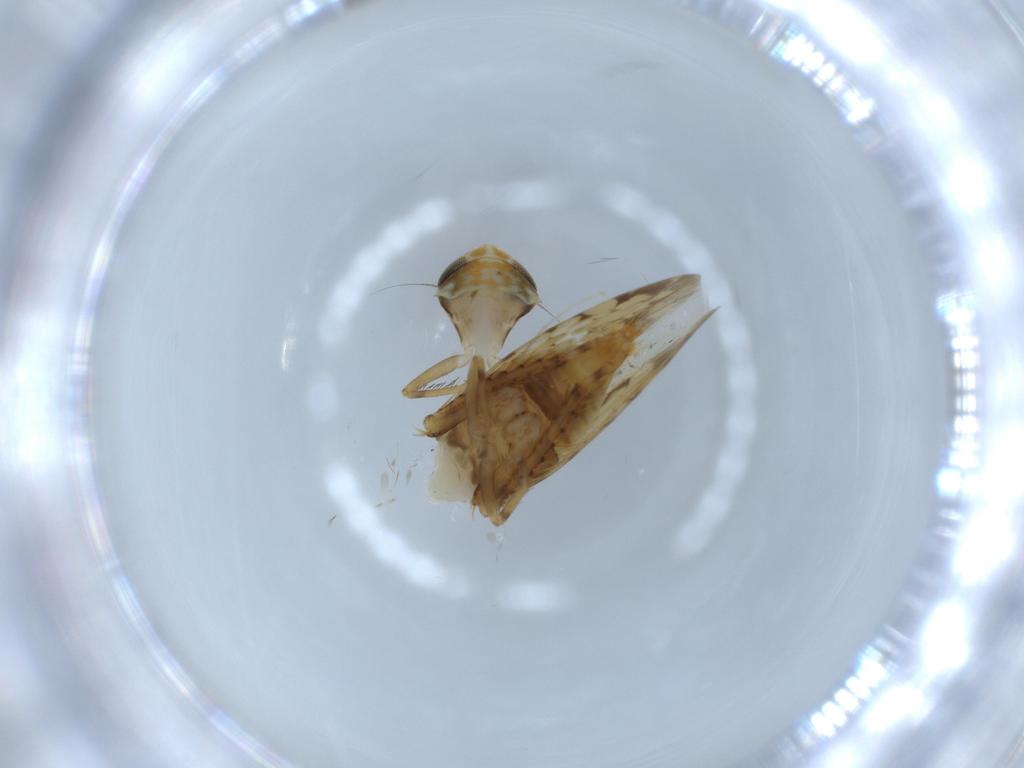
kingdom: Animalia
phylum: Arthropoda
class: Insecta
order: Hemiptera
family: Cicadellidae
